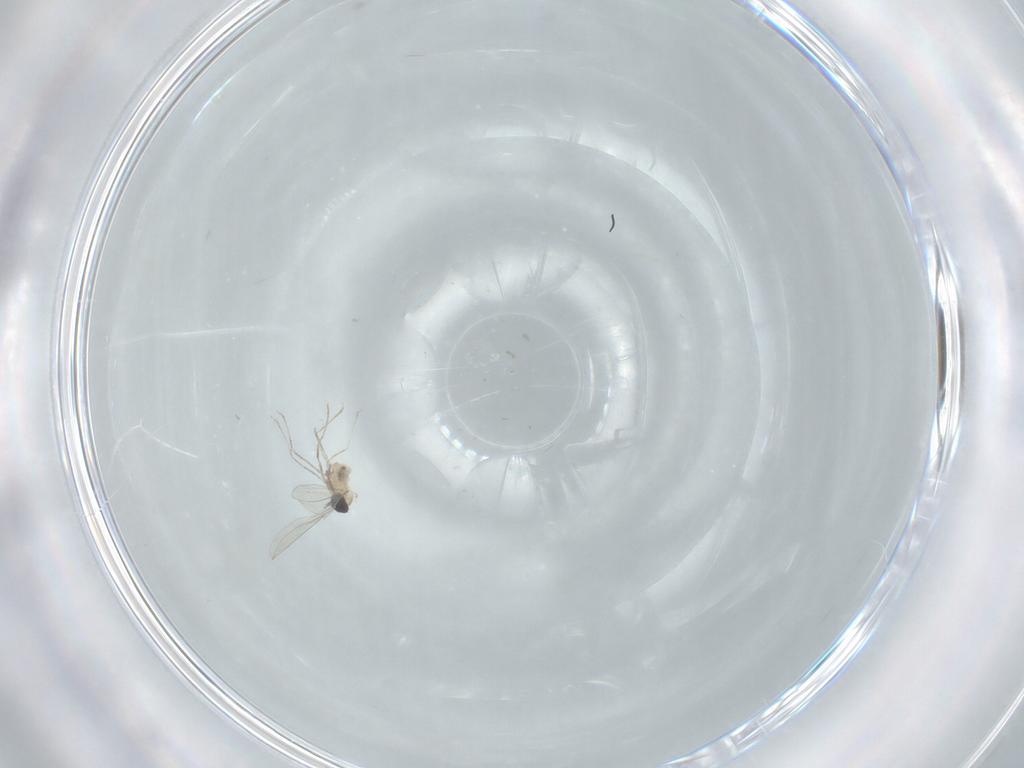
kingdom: Animalia
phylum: Arthropoda
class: Insecta
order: Diptera
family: Cecidomyiidae
